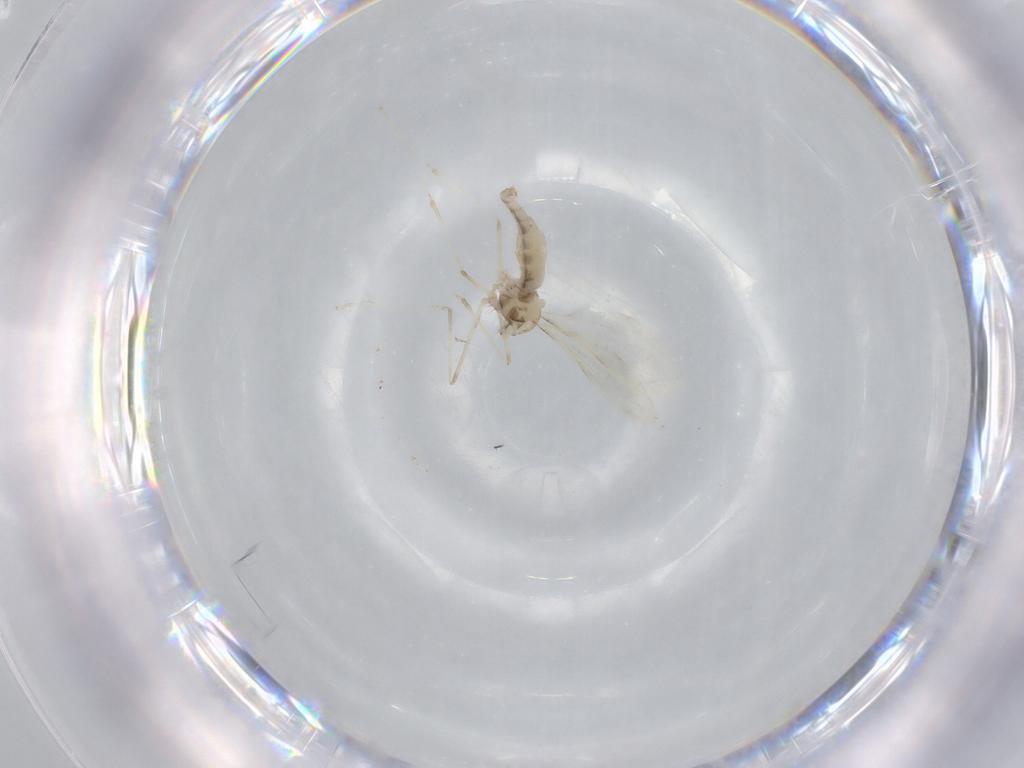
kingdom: Animalia
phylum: Arthropoda
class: Insecta
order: Diptera
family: Cecidomyiidae
